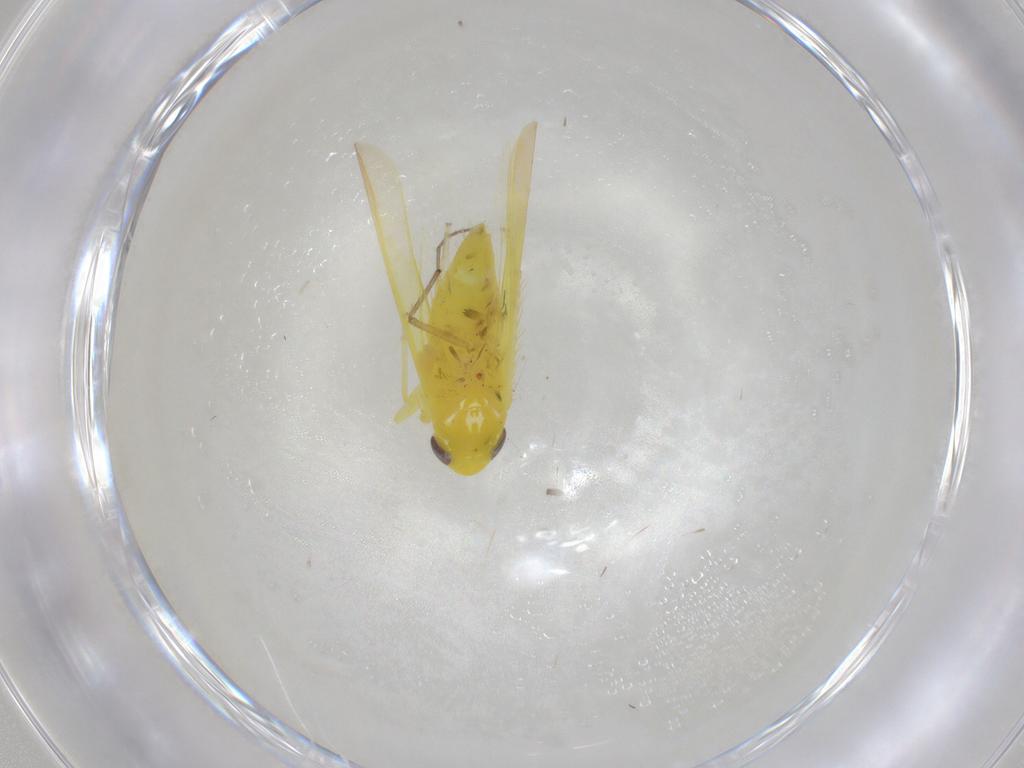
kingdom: Animalia
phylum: Arthropoda
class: Insecta
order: Hemiptera
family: Cicadellidae
